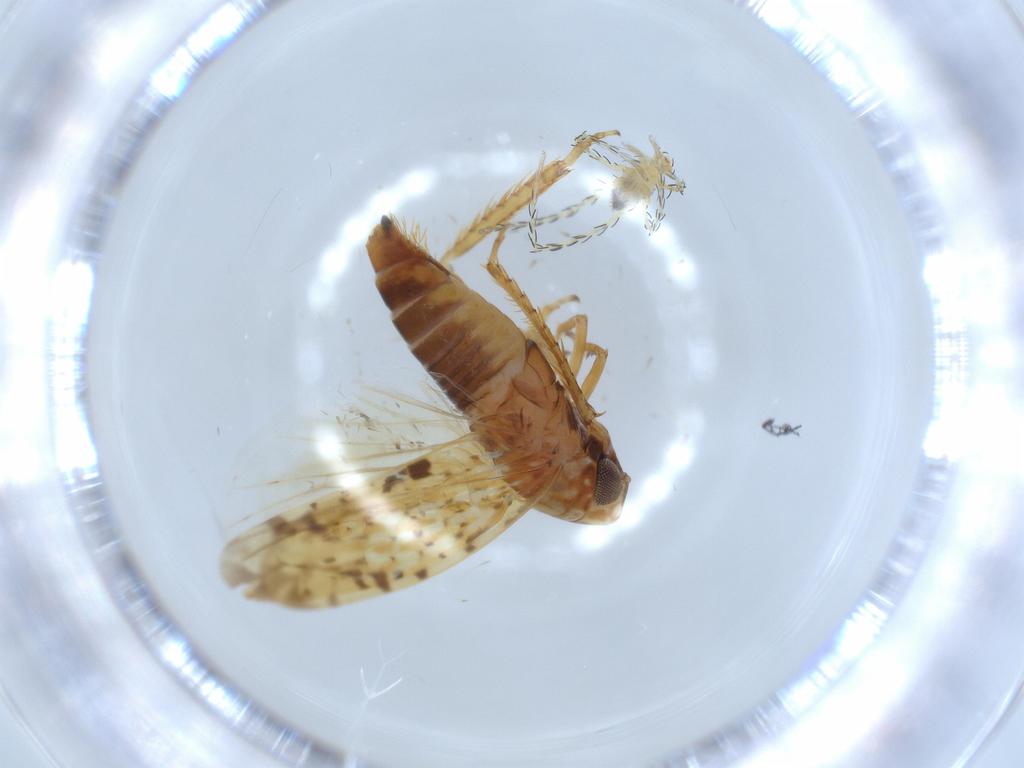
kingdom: Animalia
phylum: Arthropoda
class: Insecta
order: Hemiptera
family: Cicadellidae
